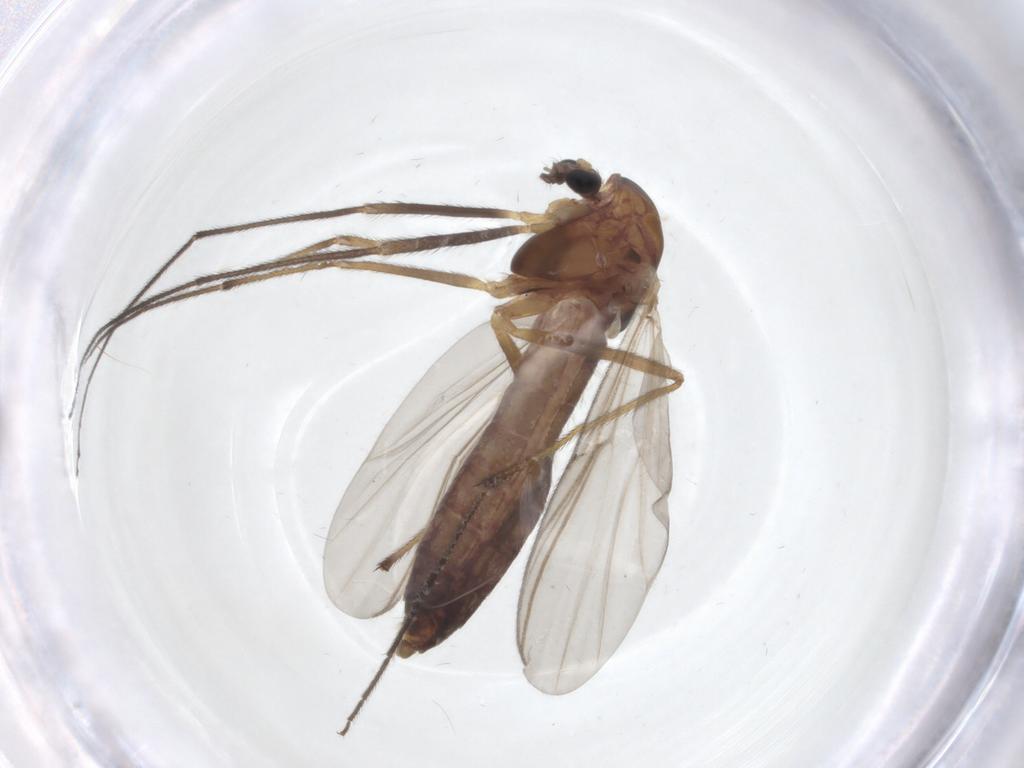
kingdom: Animalia
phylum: Arthropoda
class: Insecta
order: Diptera
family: Chironomidae
